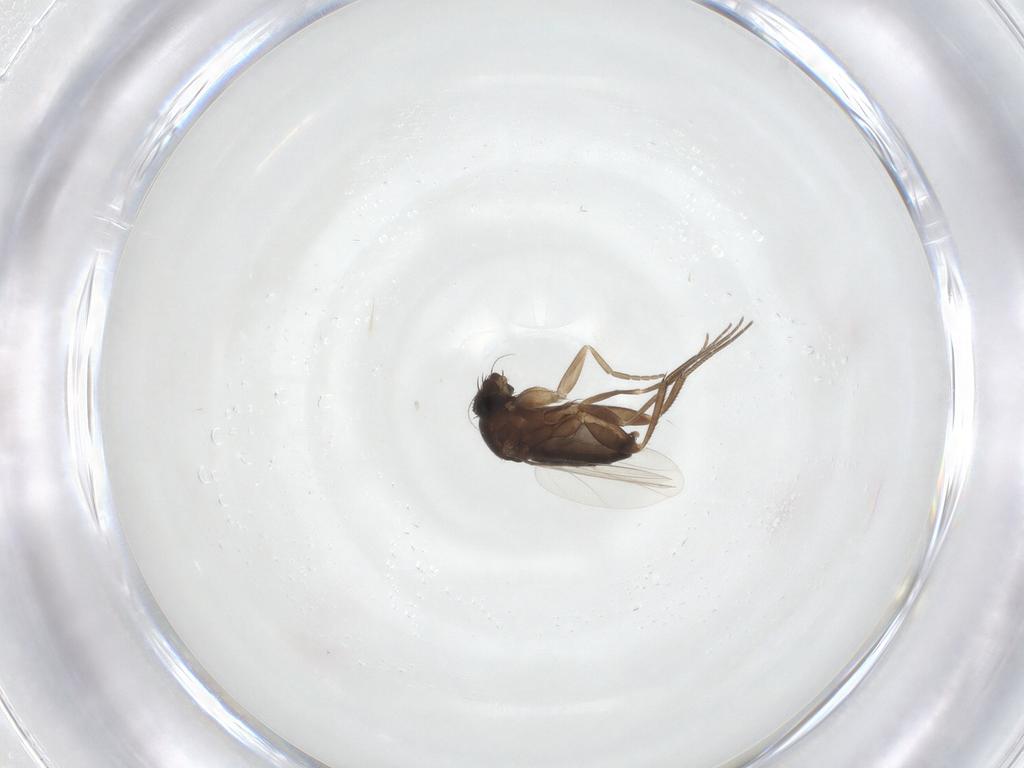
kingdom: Animalia
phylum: Arthropoda
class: Insecta
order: Diptera
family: Phoridae
